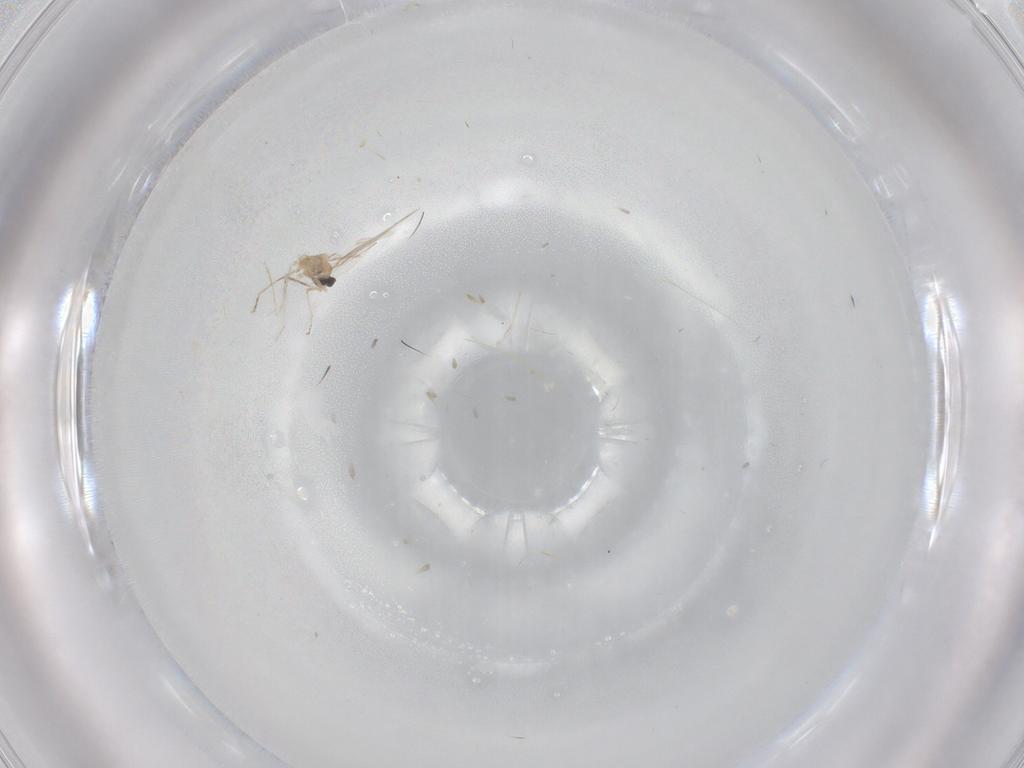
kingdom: Animalia
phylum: Arthropoda
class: Insecta
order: Diptera
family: Cecidomyiidae
